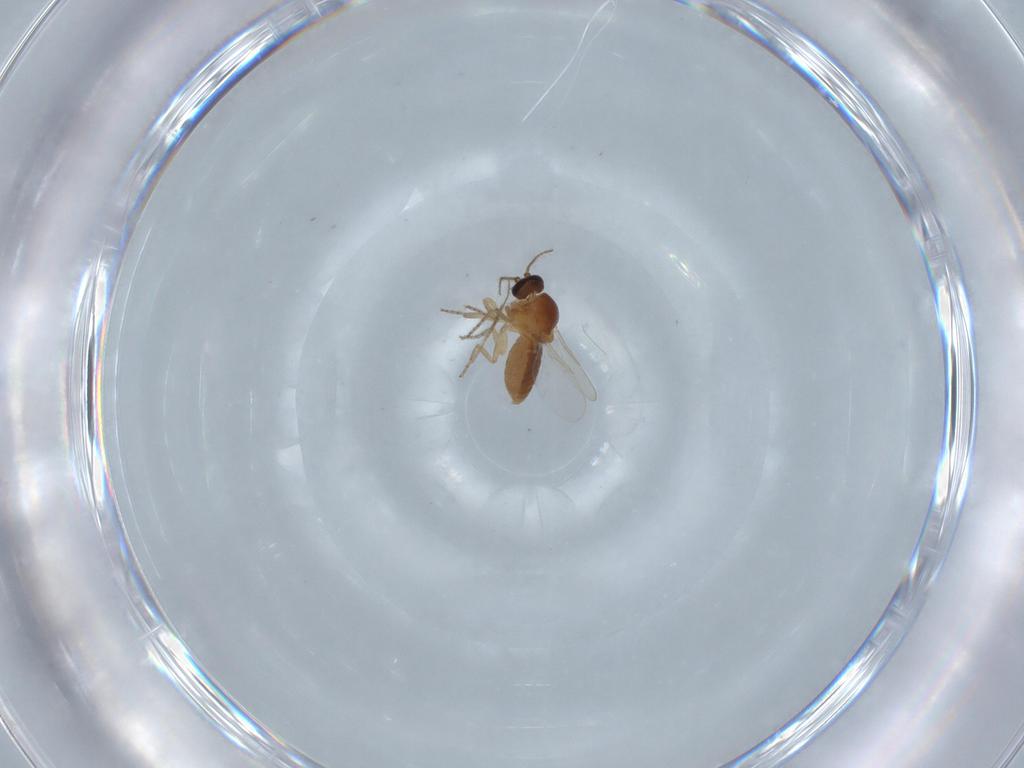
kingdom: Animalia
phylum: Arthropoda
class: Insecta
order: Diptera
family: Ceratopogonidae
